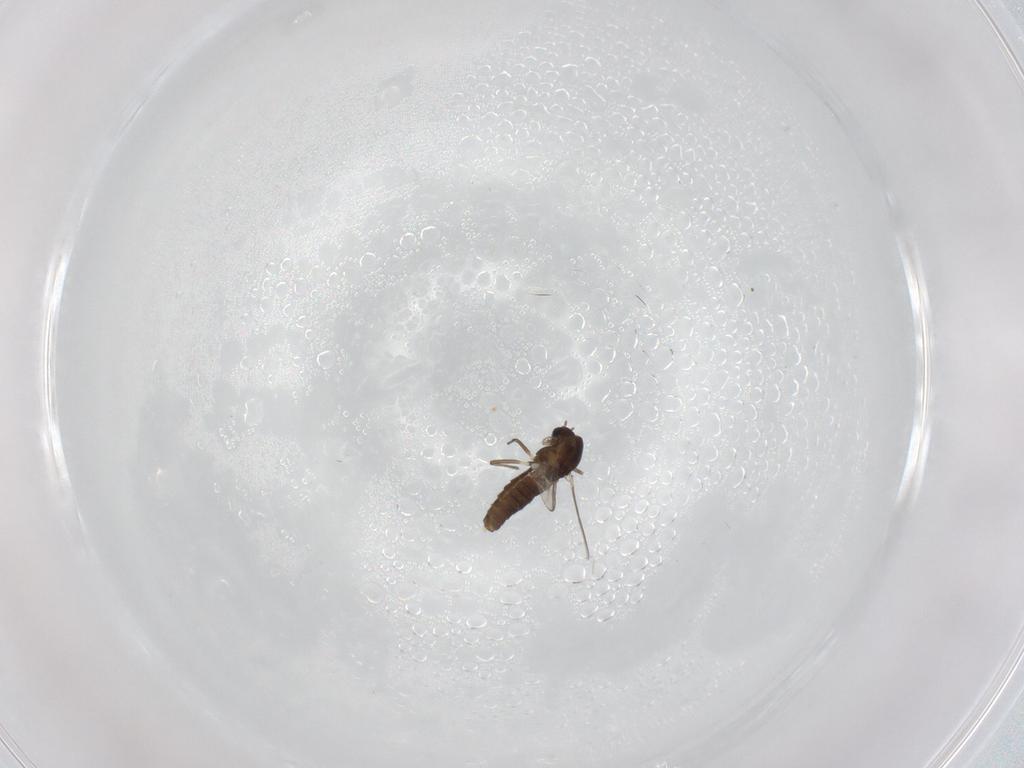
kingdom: Animalia
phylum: Arthropoda
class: Insecta
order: Diptera
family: Chironomidae
